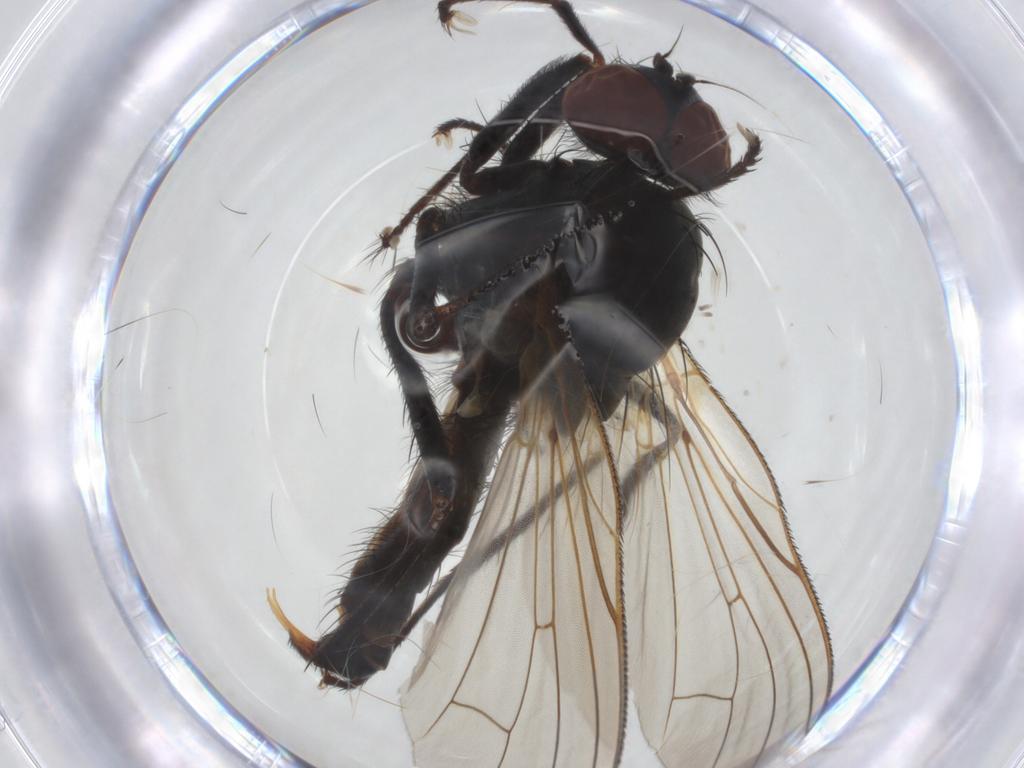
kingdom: Animalia
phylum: Arthropoda
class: Insecta
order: Diptera
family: Anthomyiidae
